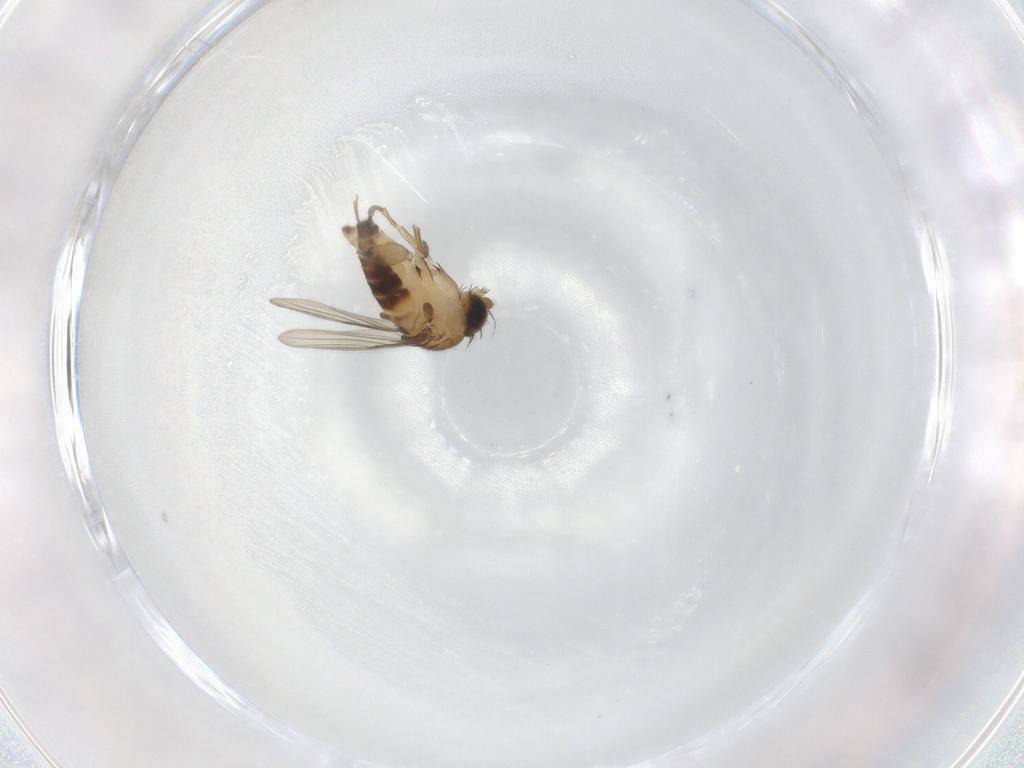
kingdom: Animalia
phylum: Arthropoda
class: Insecta
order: Diptera
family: Phoridae
